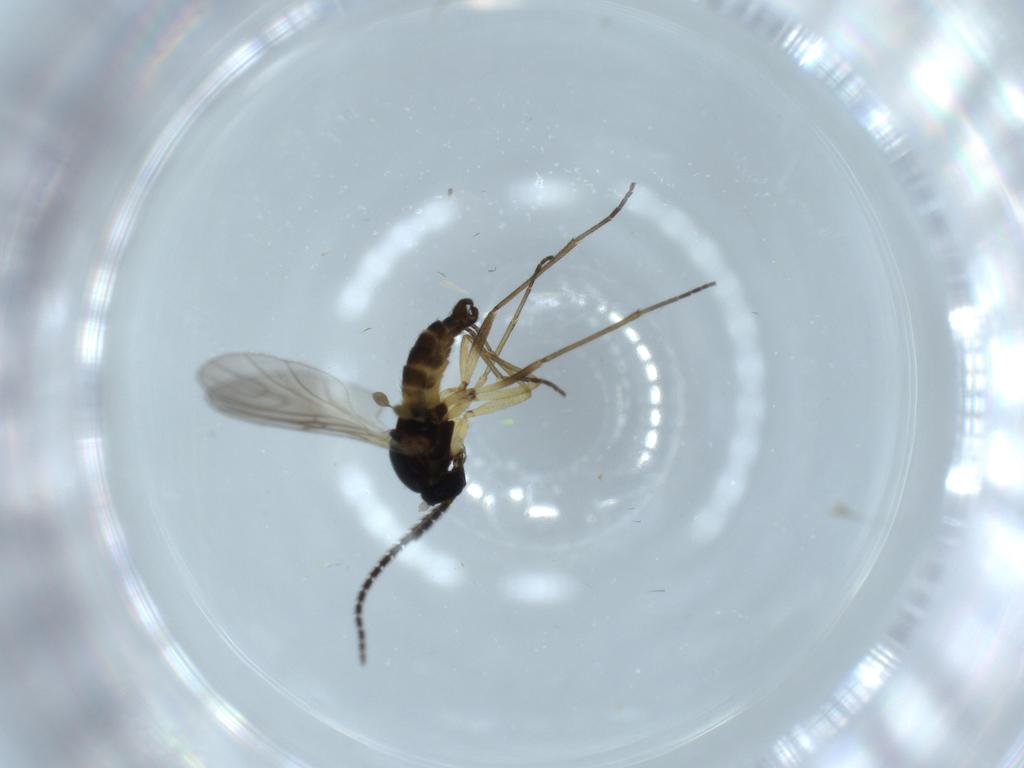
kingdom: Animalia
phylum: Arthropoda
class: Insecta
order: Diptera
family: Sciaridae
